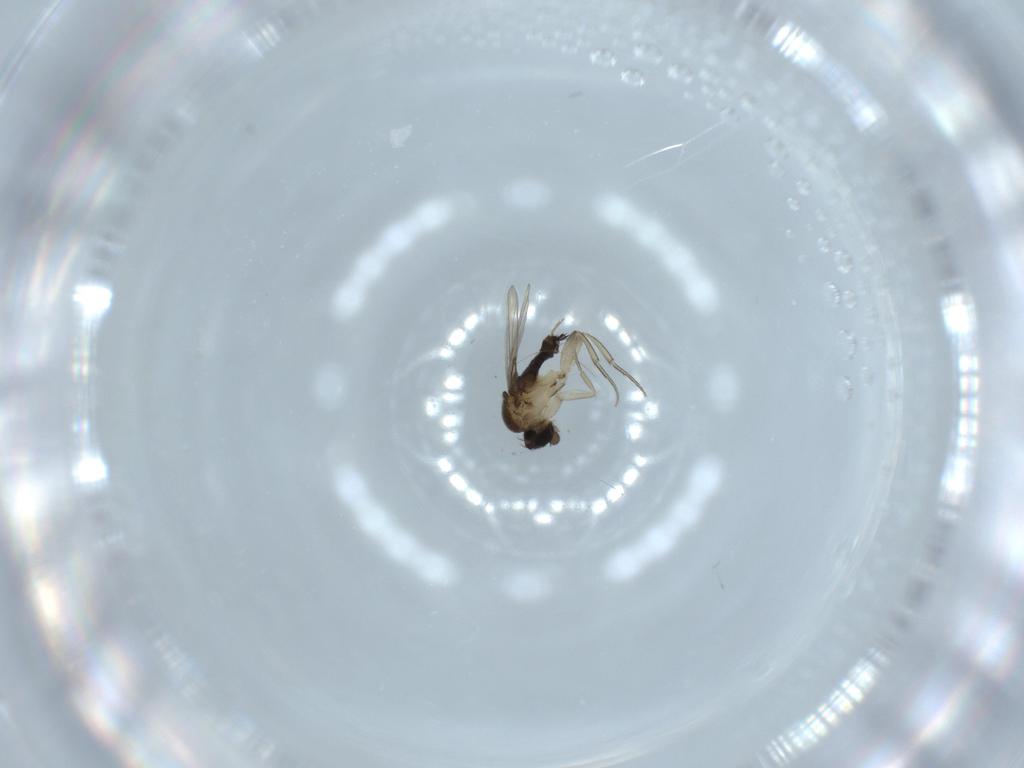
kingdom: Animalia
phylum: Arthropoda
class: Insecta
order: Diptera
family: Phoridae
